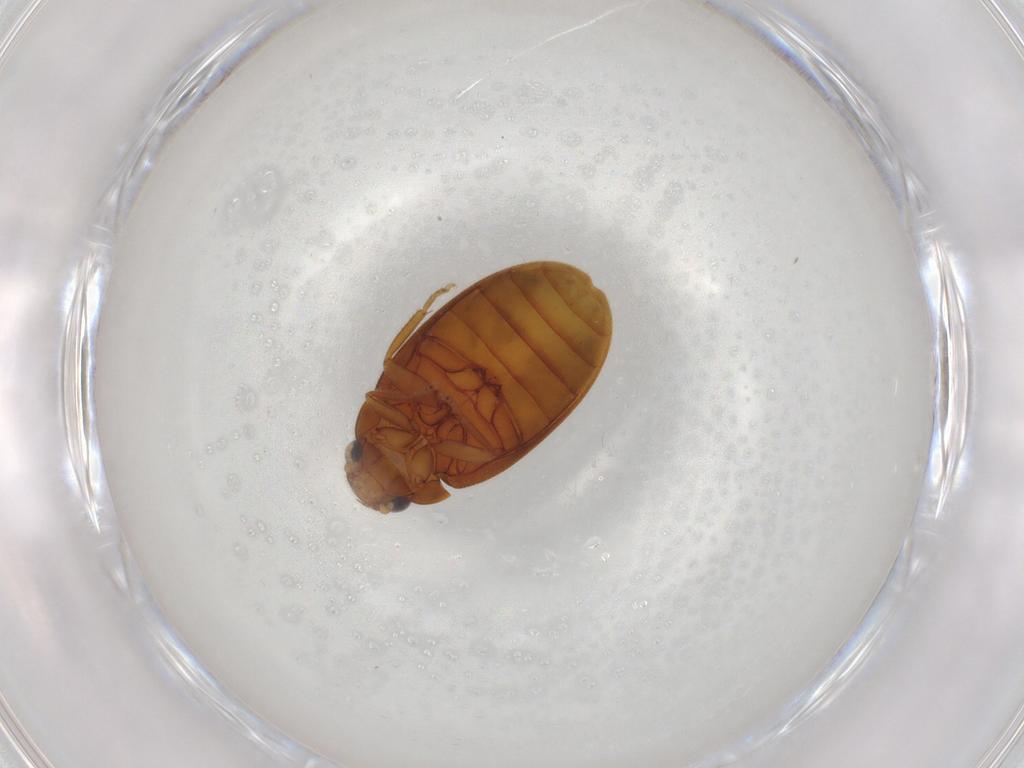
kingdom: Animalia
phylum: Arthropoda
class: Insecta
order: Coleoptera
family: Scirtidae
